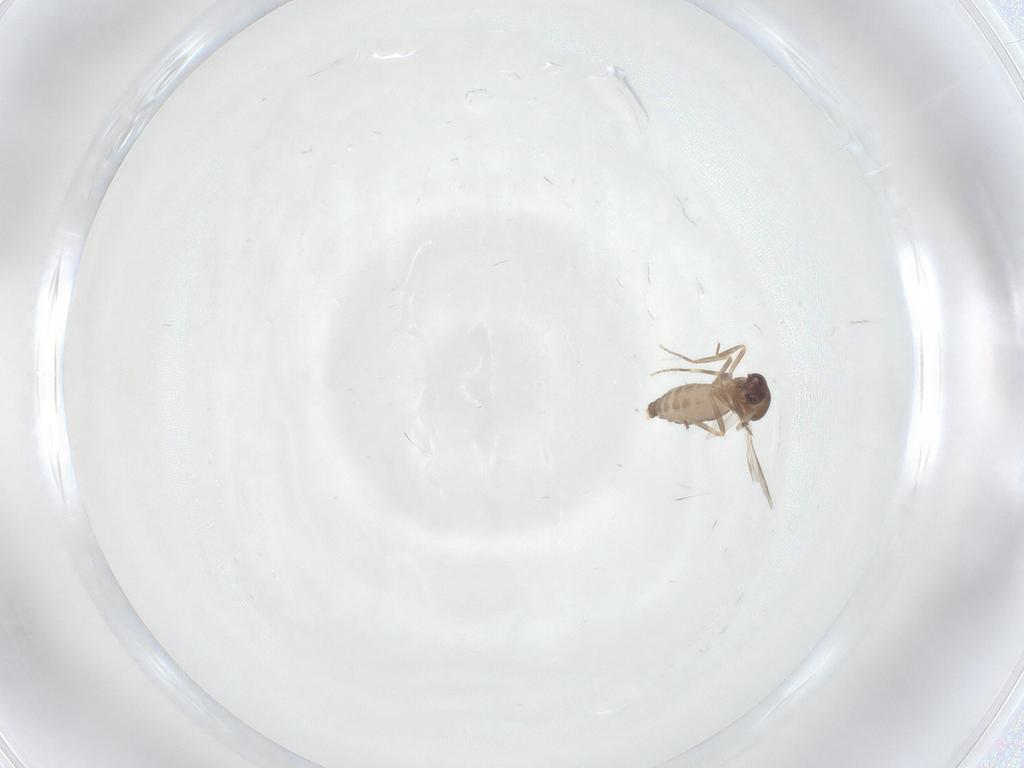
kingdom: Animalia
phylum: Arthropoda
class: Insecta
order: Diptera
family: Ceratopogonidae
